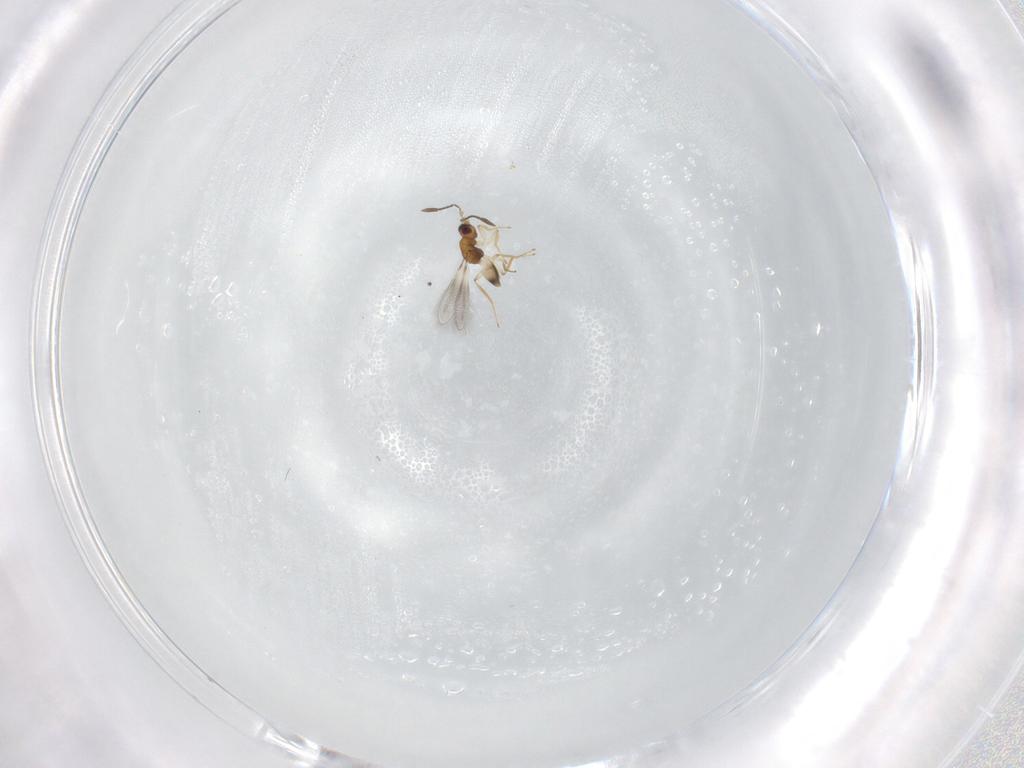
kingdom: Animalia
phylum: Arthropoda
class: Insecta
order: Hymenoptera
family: Mymaridae
